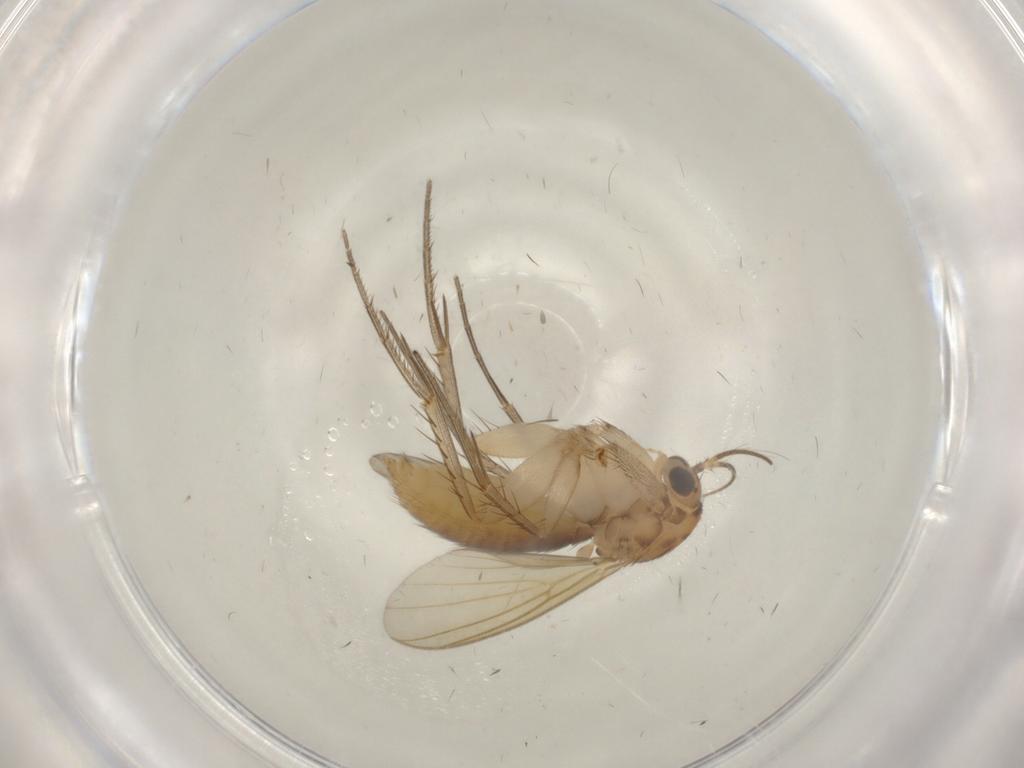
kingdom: Animalia
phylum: Arthropoda
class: Insecta
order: Diptera
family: Mycetophilidae
